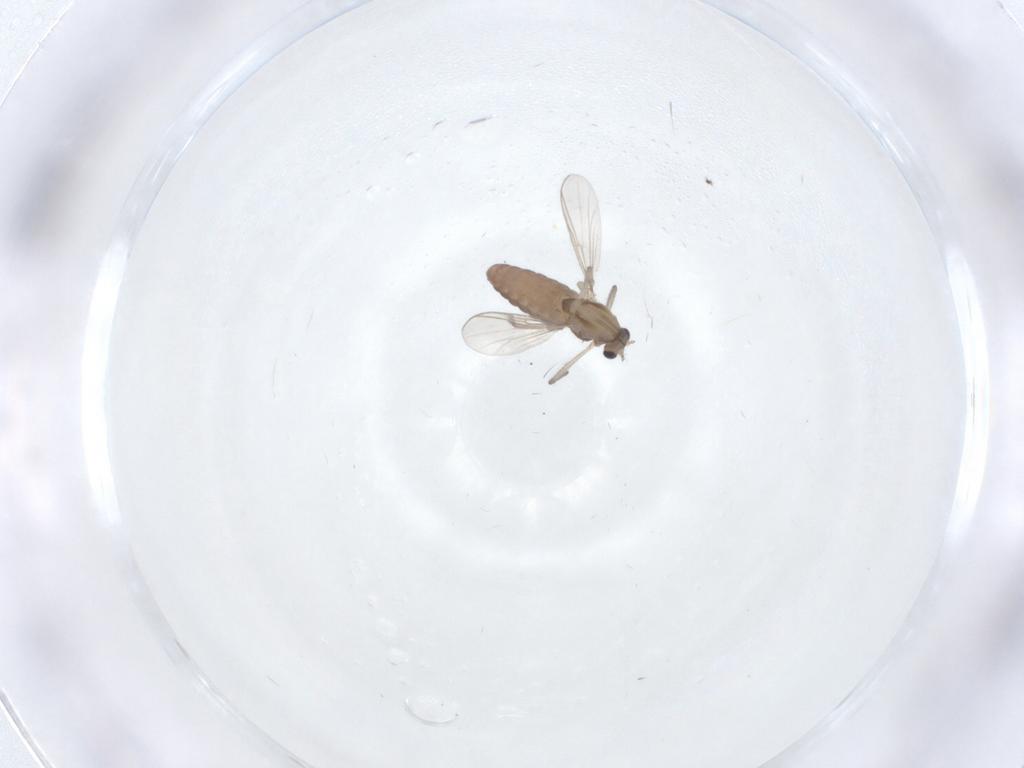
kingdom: Animalia
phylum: Arthropoda
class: Insecta
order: Diptera
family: Chironomidae
